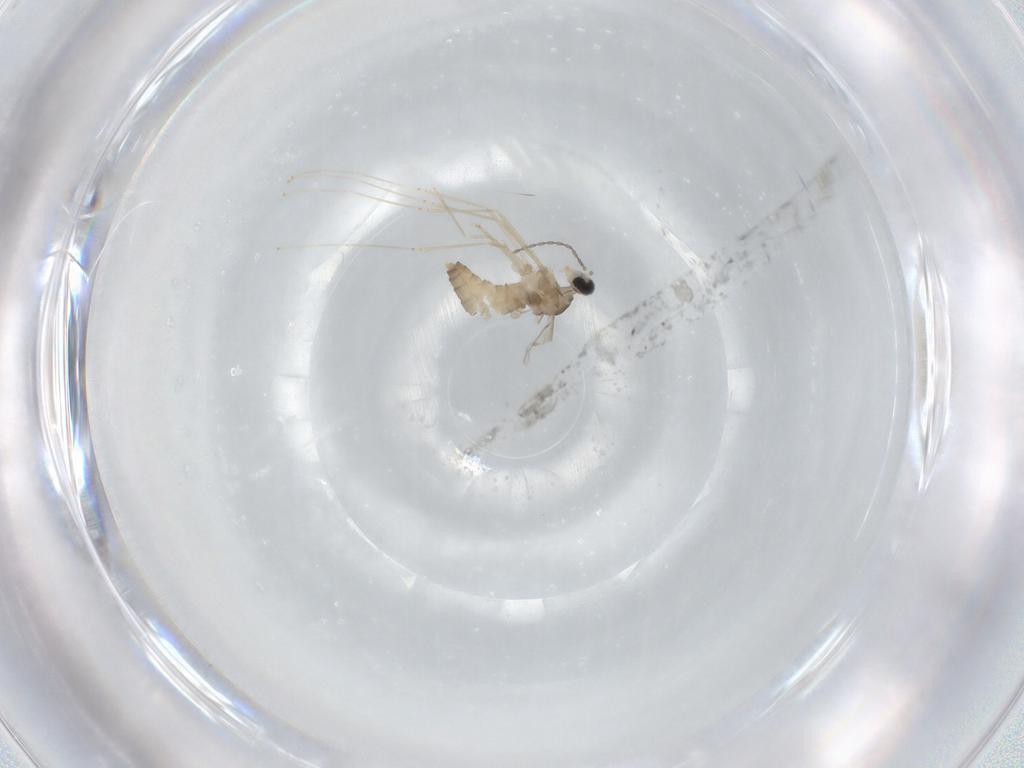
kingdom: Animalia
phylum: Arthropoda
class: Insecta
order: Diptera
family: Cecidomyiidae
